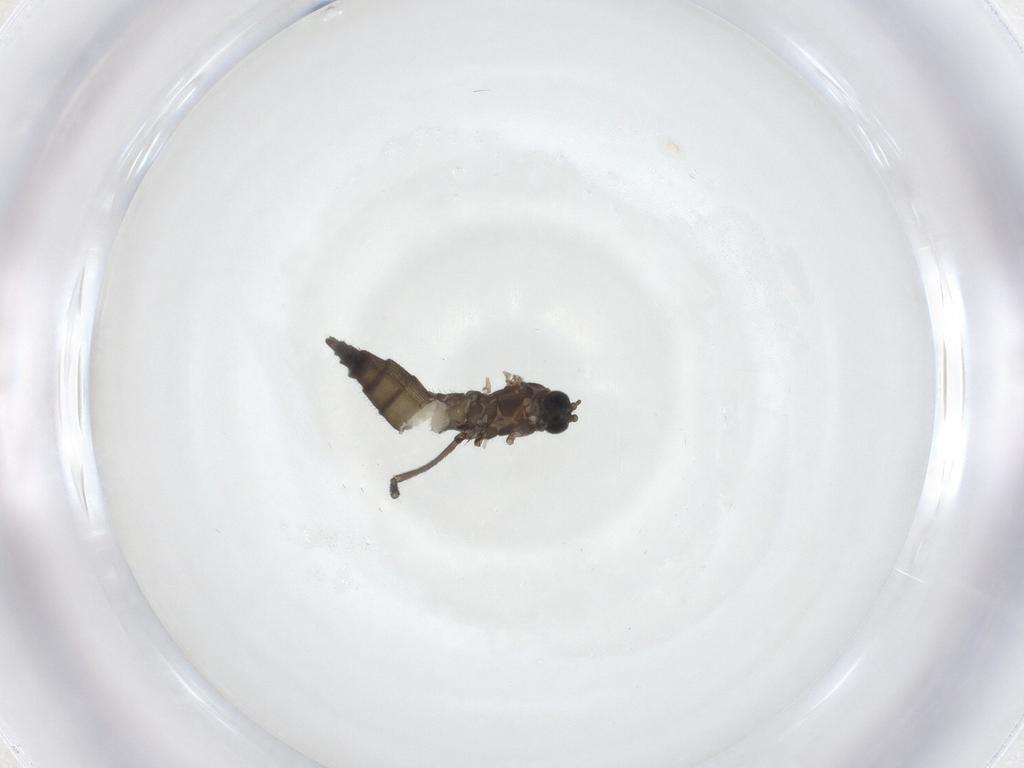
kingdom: Animalia
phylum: Arthropoda
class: Insecta
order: Diptera
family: Sciaridae
